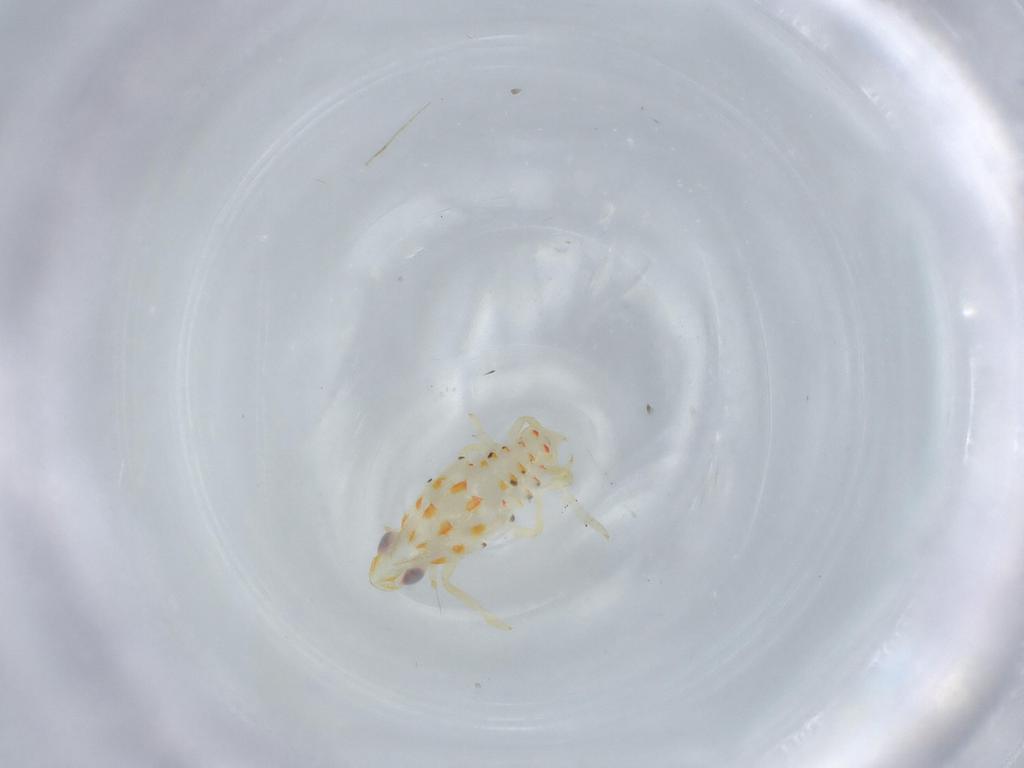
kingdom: Animalia
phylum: Arthropoda
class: Insecta
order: Hemiptera
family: Tropiduchidae
